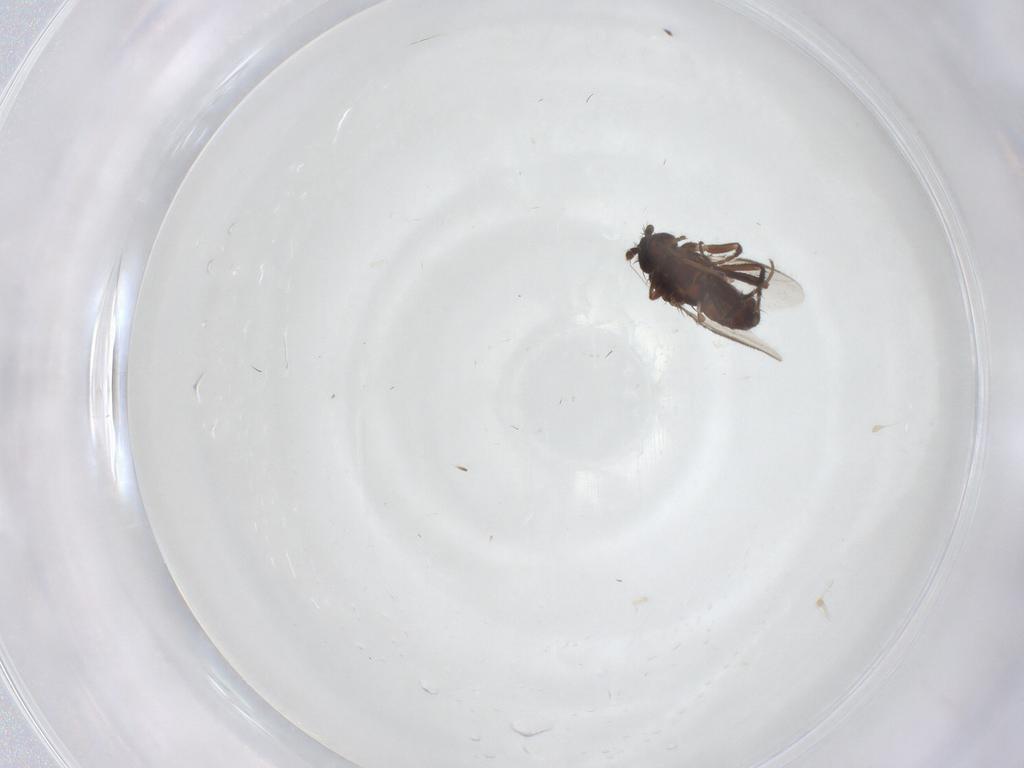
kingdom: Animalia
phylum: Arthropoda
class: Insecta
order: Diptera
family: Sphaeroceridae
